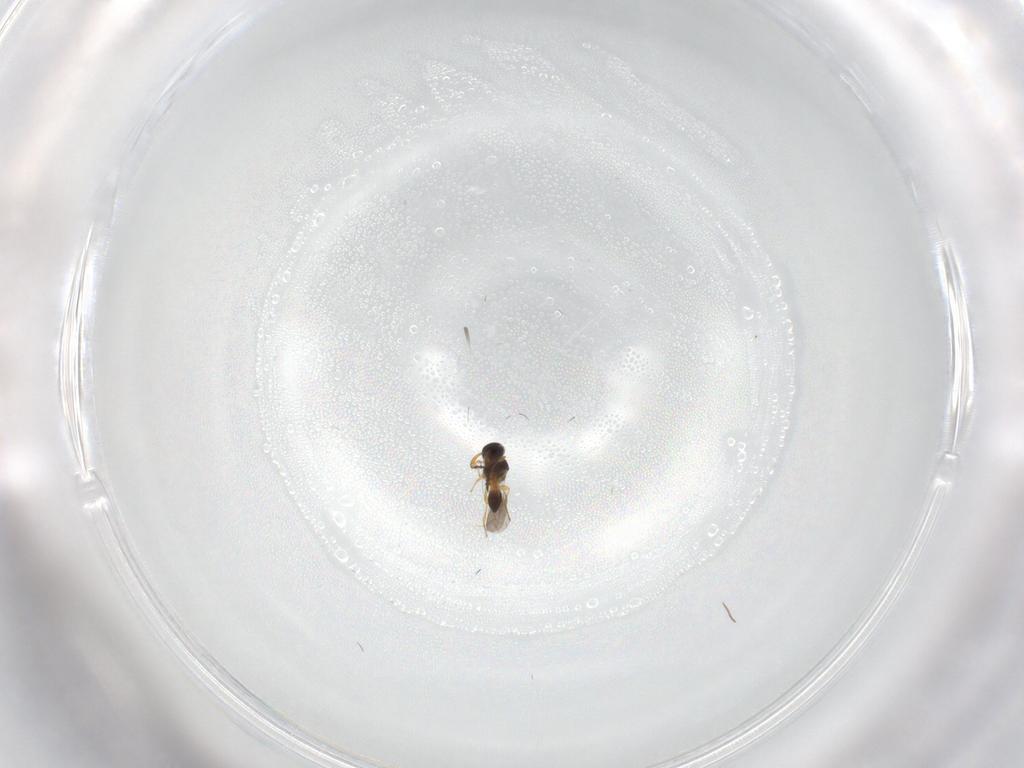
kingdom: Animalia
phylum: Arthropoda
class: Insecta
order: Hymenoptera
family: Platygastridae
